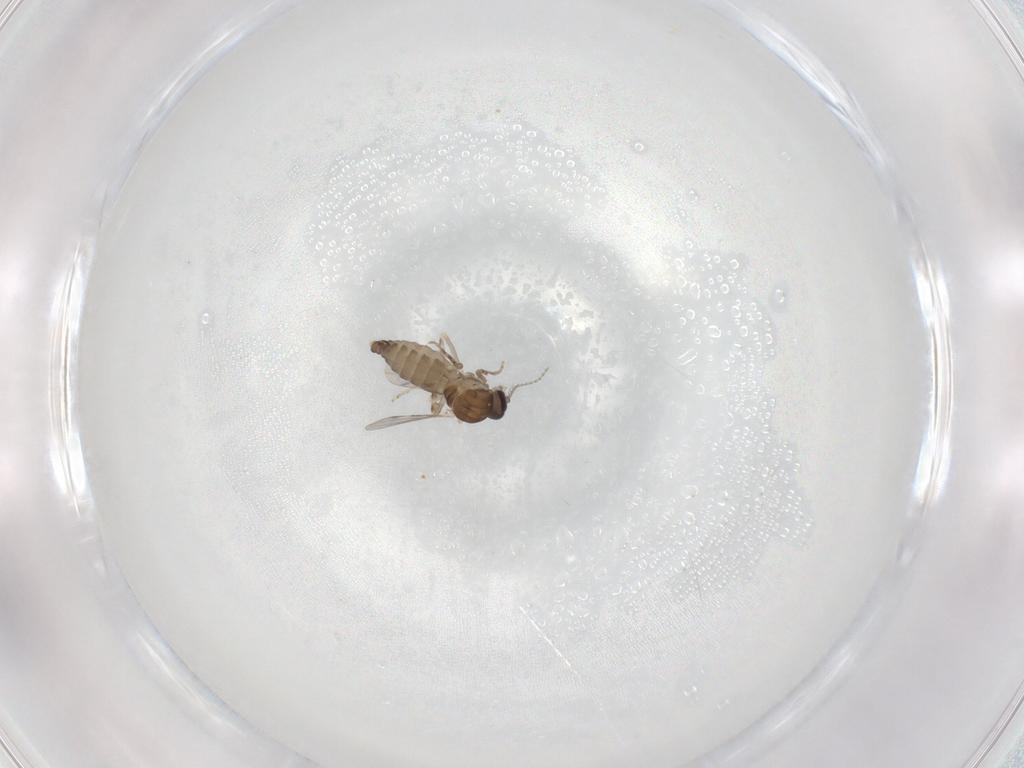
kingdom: Animalia
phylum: Arthropoda
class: Insecta
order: Diptera
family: Ceratopogonidae
